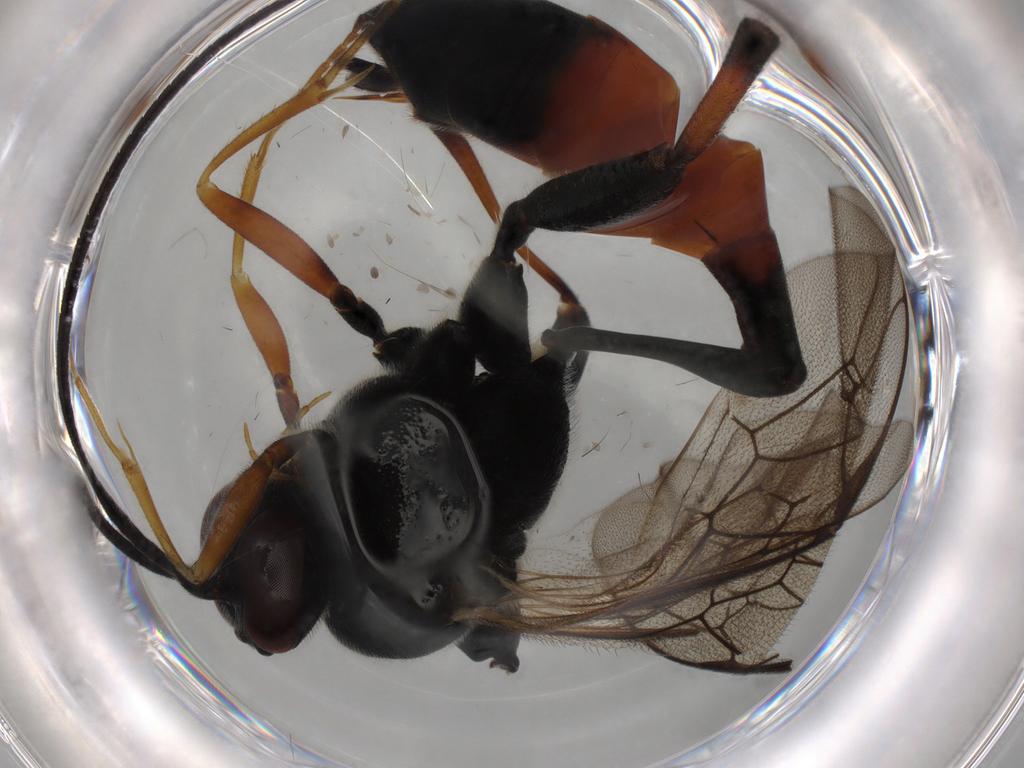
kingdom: Animalia
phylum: Arthropoda
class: Insecta
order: Hymenoptera
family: Ichneumonidae
